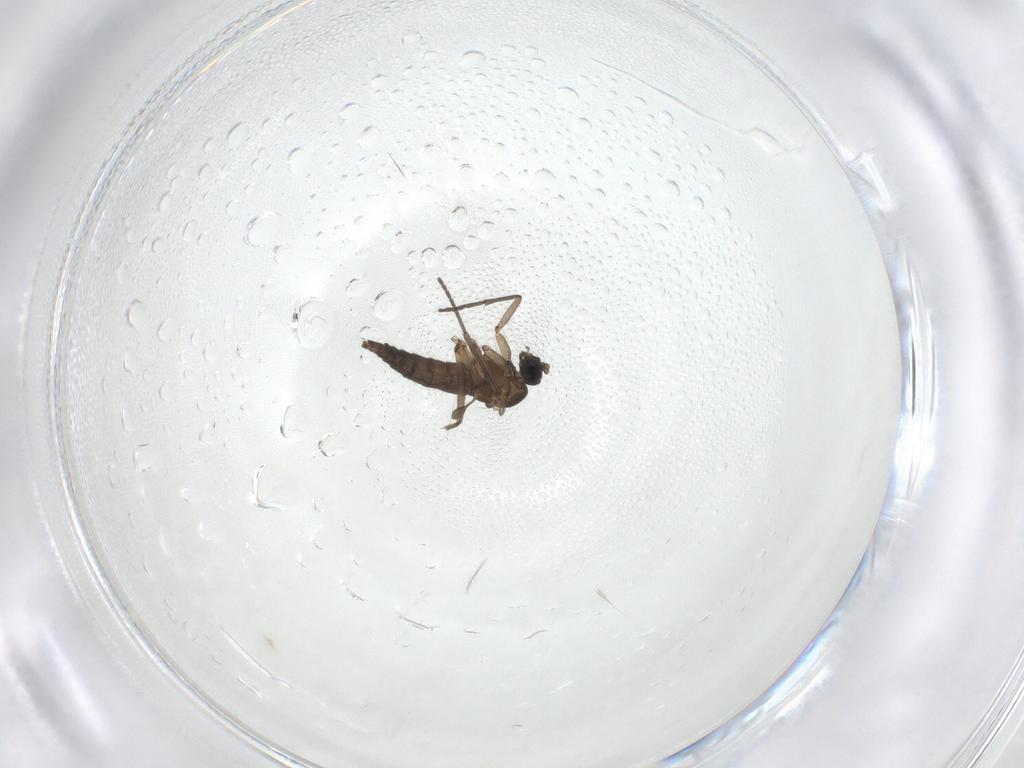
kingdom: Animalia
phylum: Arthropoda
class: Insecta
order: Diptera
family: Sciaridae
